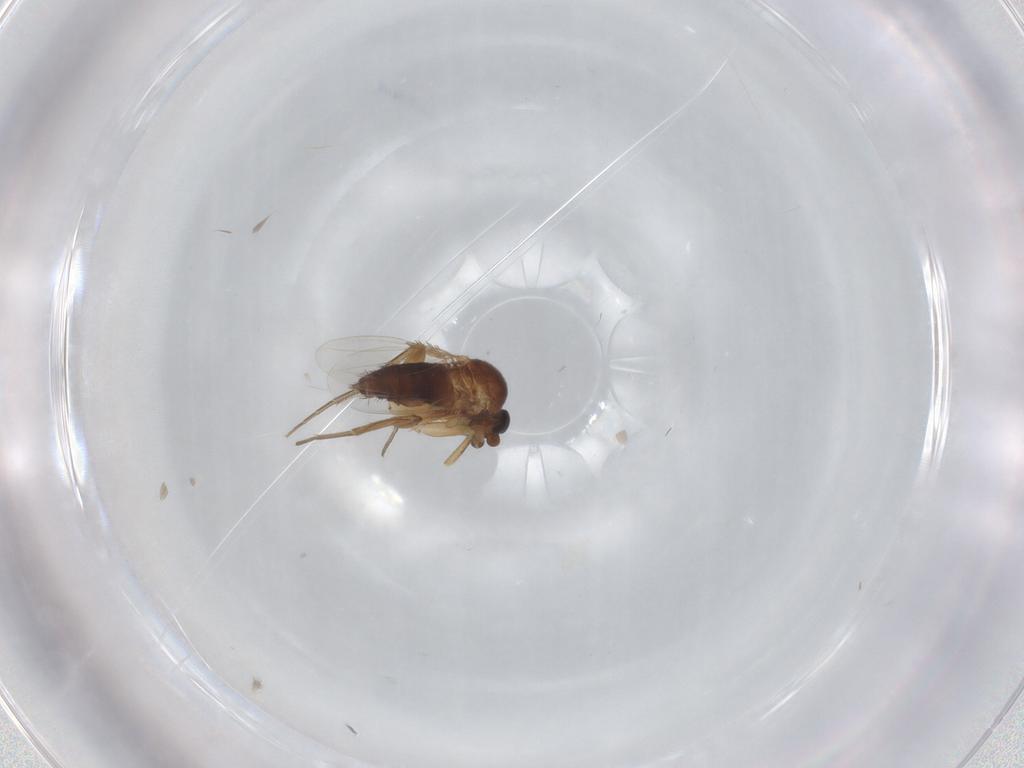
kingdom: Animalia
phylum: Arthropoda
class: Insecta
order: Diptera
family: Phoridae
